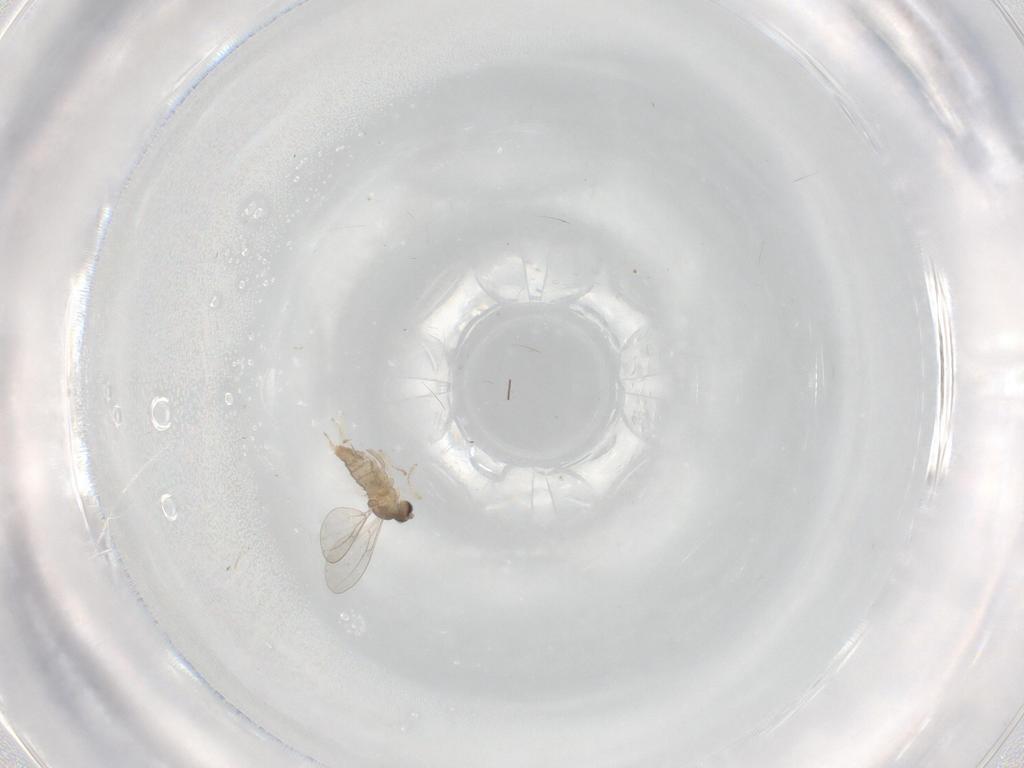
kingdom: Animalia
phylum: Arthropoda
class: Insecta
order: Diptera
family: Cecidomyiidae
